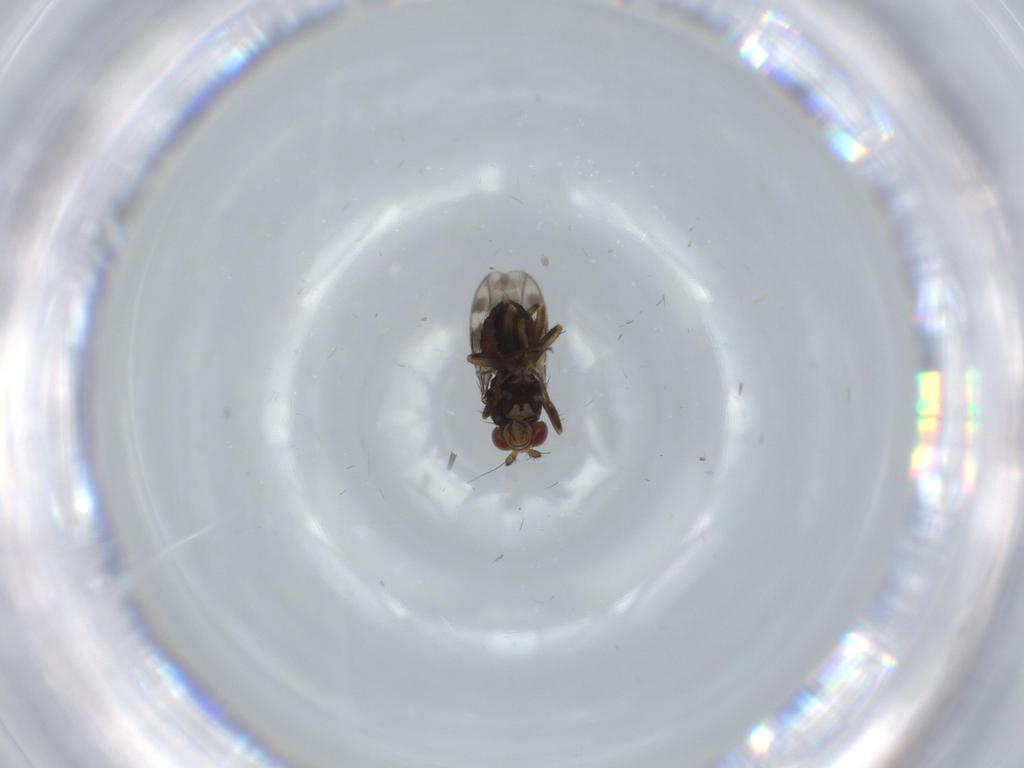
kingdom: Animalia
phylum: Arthropoda
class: Insecta
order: Diptera
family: Sphaeroceridae
